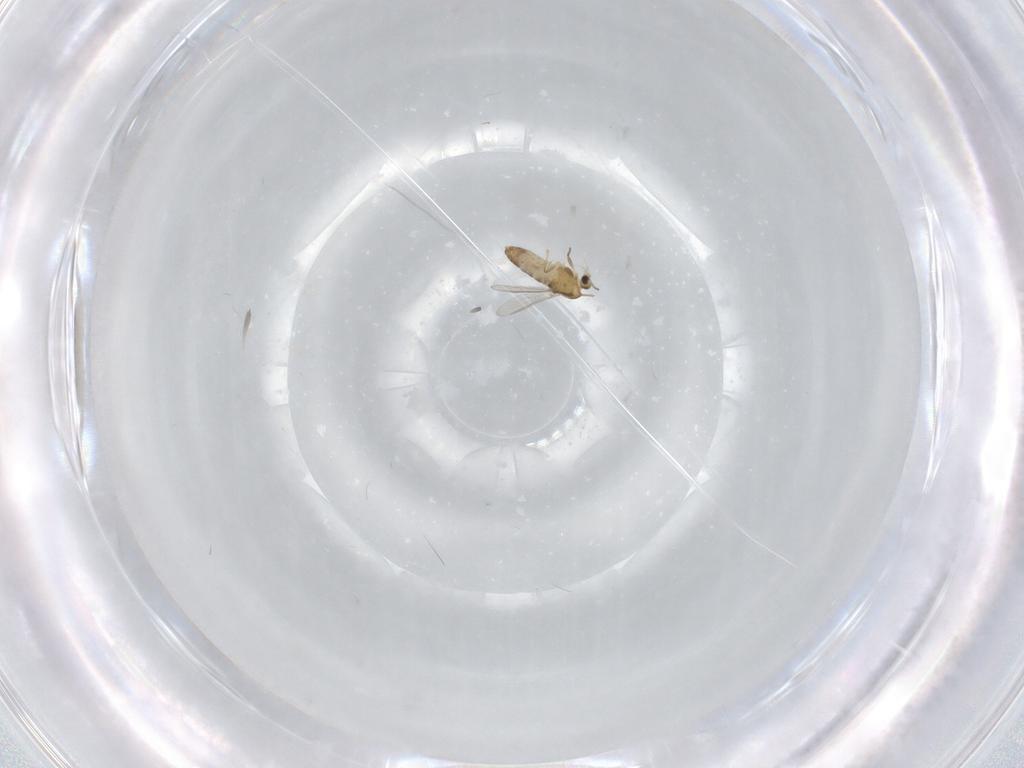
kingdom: Animalia
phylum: Arthropoda
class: Insecta
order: Diptera
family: Chironomidae
